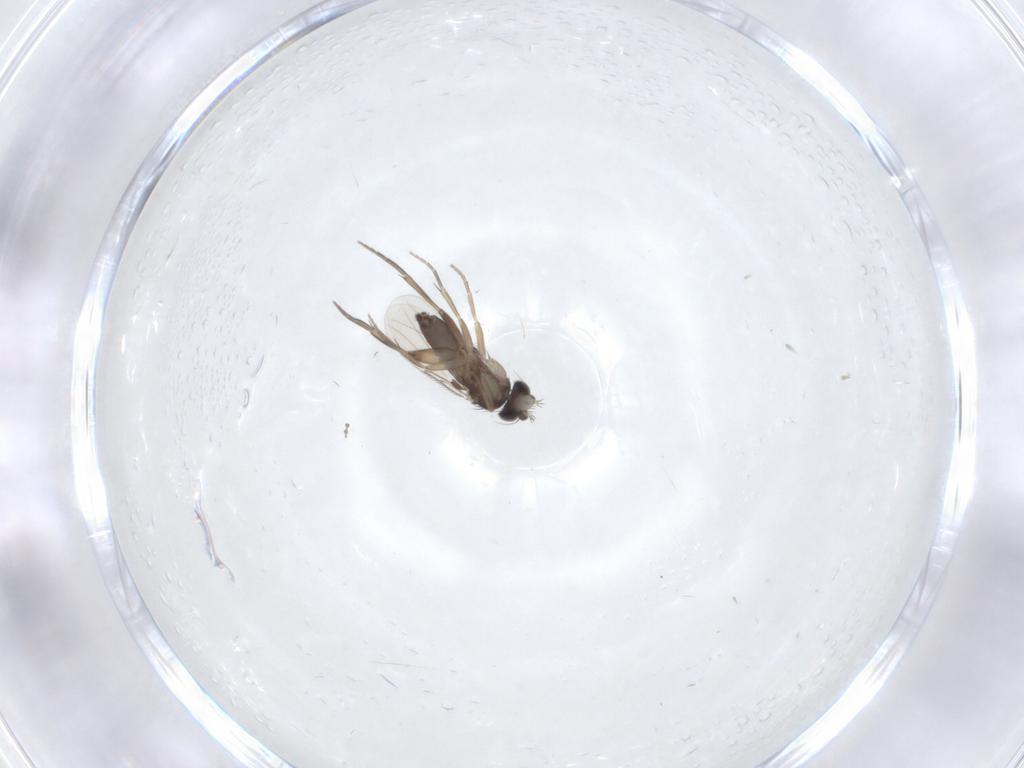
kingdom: Animalia
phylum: Arthropoda
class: Insecta
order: Diptera
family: Phoridae
